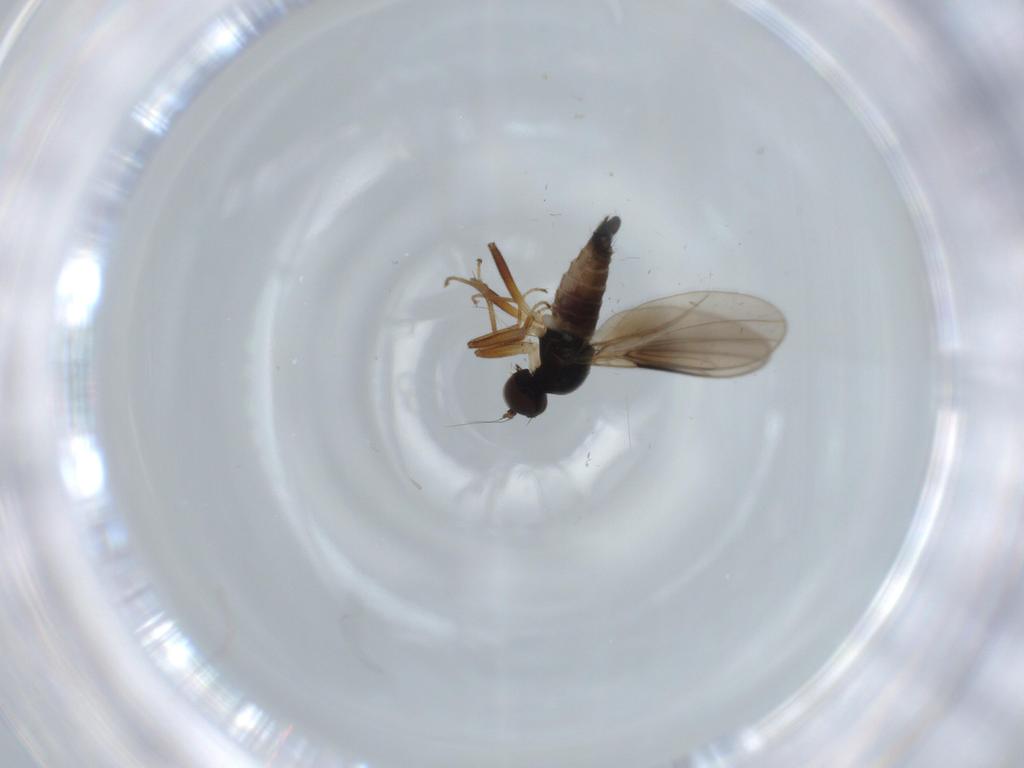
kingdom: Animalia
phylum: Arthropoda
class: Insecta
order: Diptera
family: Hybotidae
